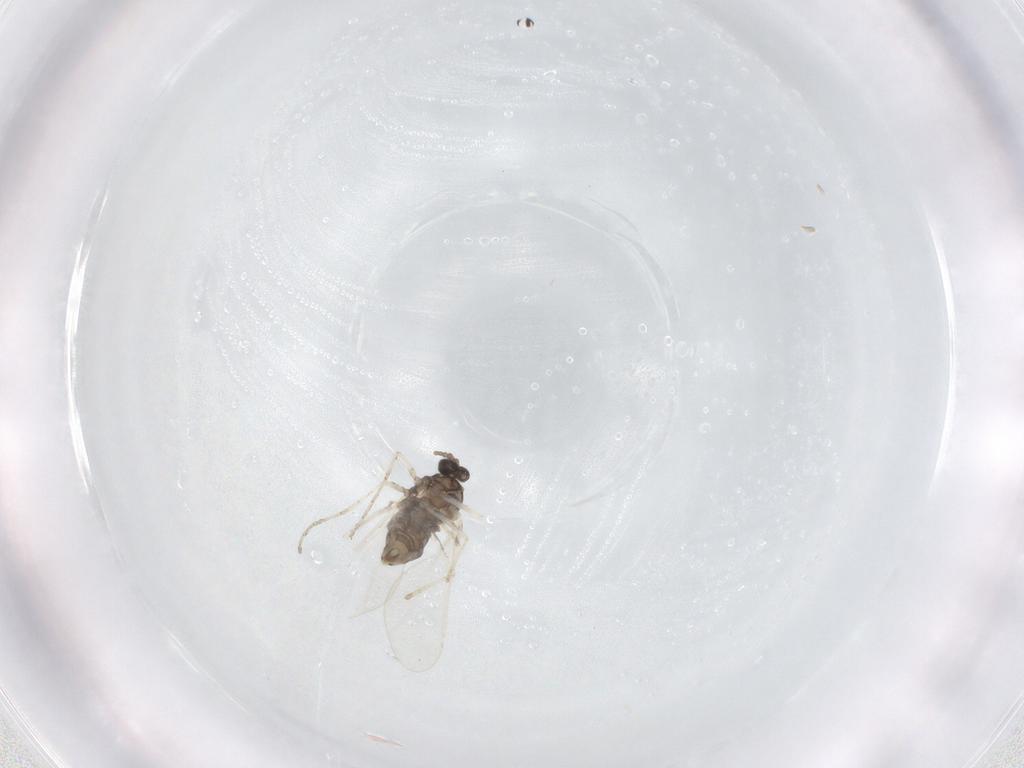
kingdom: Animalia
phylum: Arthropoda
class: Insecta
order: Diptera
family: Cecidomyiidae
